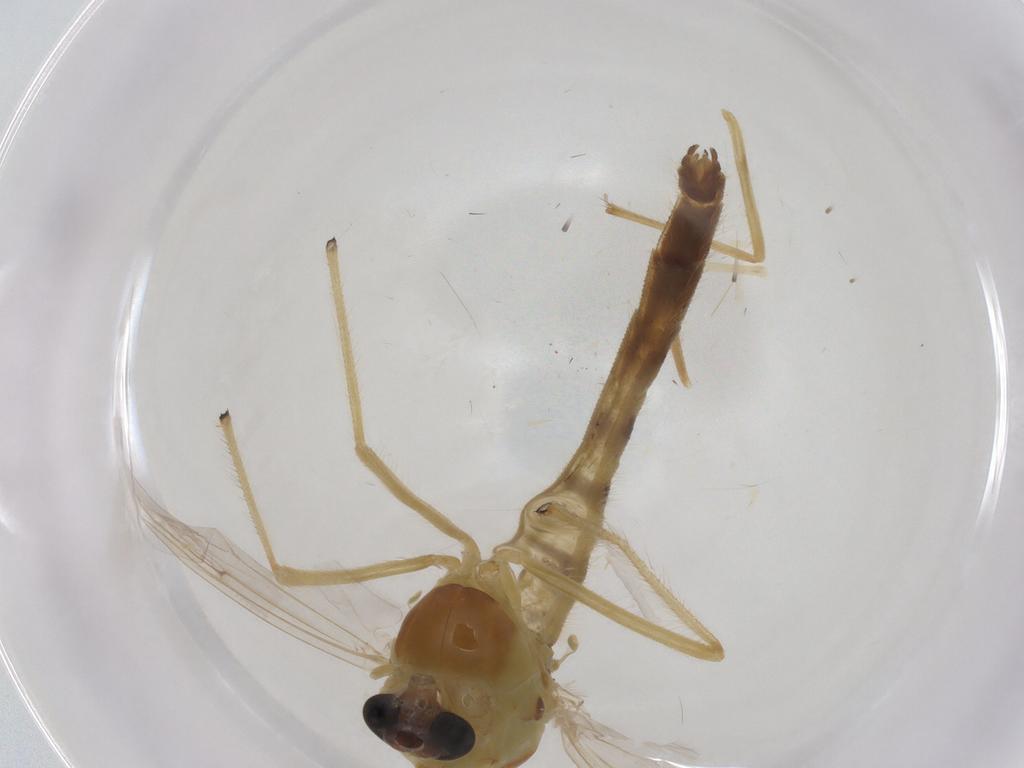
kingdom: Animalia
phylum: Arthropoda
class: Insecta
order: Diptera
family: Chironomidae
